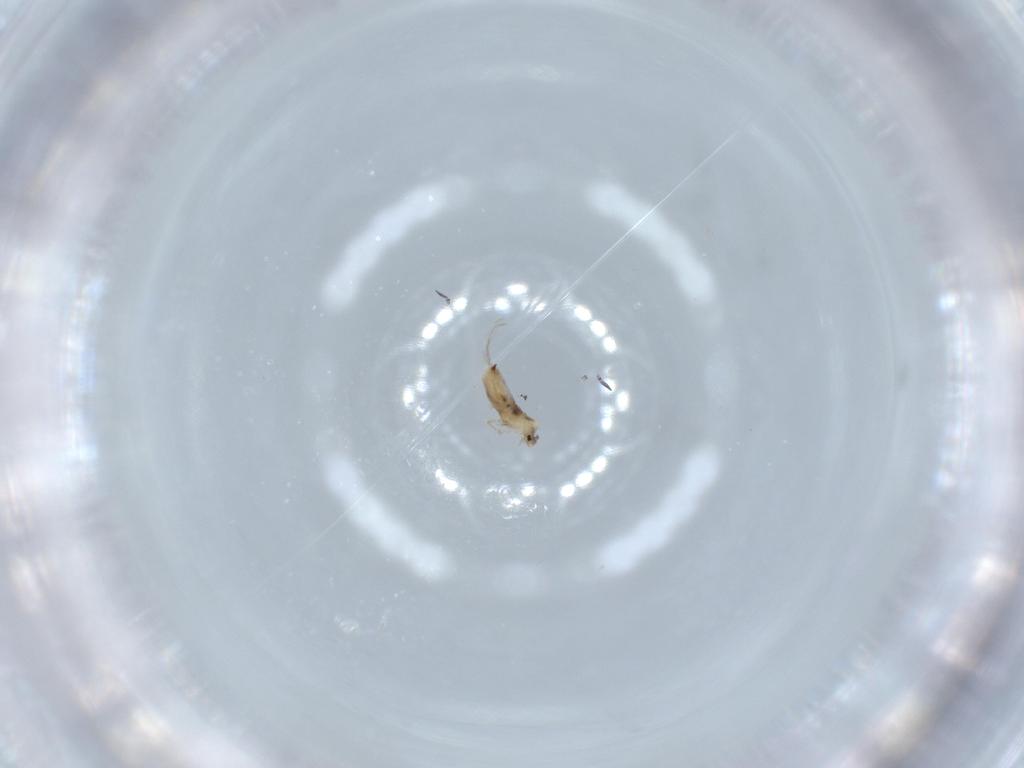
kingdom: Animalia
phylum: Arthropoda
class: Collembola
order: Entomobryomorpha
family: Entomobryidae
